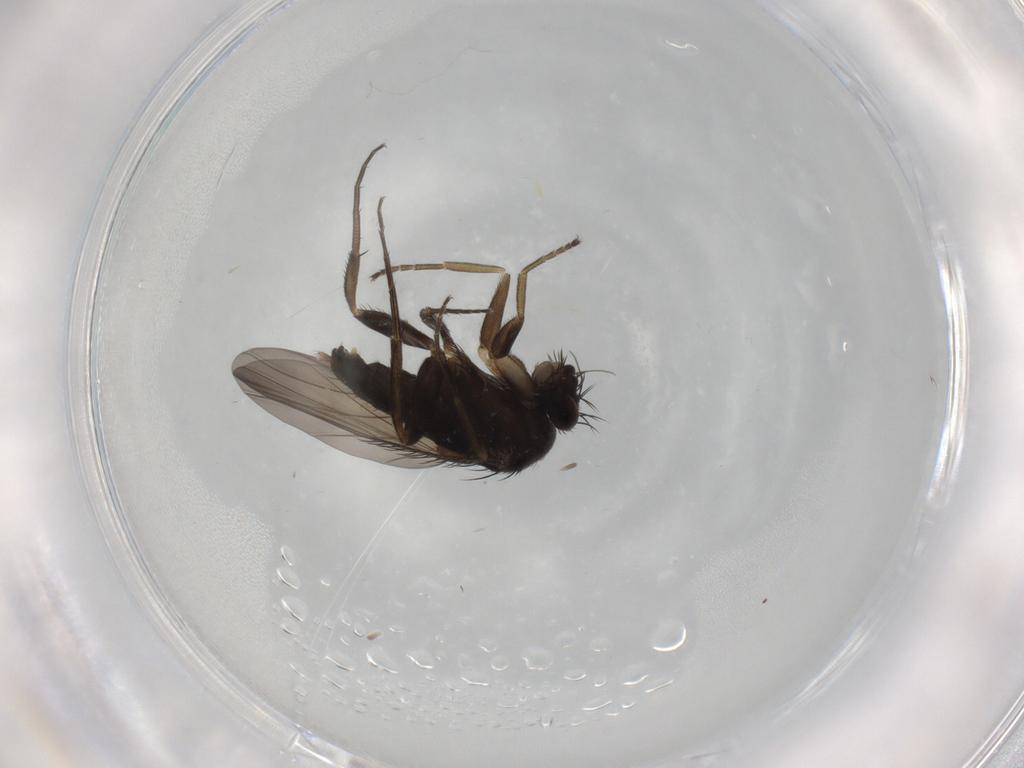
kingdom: Animalia
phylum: Arthropoda
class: Insecta
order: Diptera
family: Phoridae
